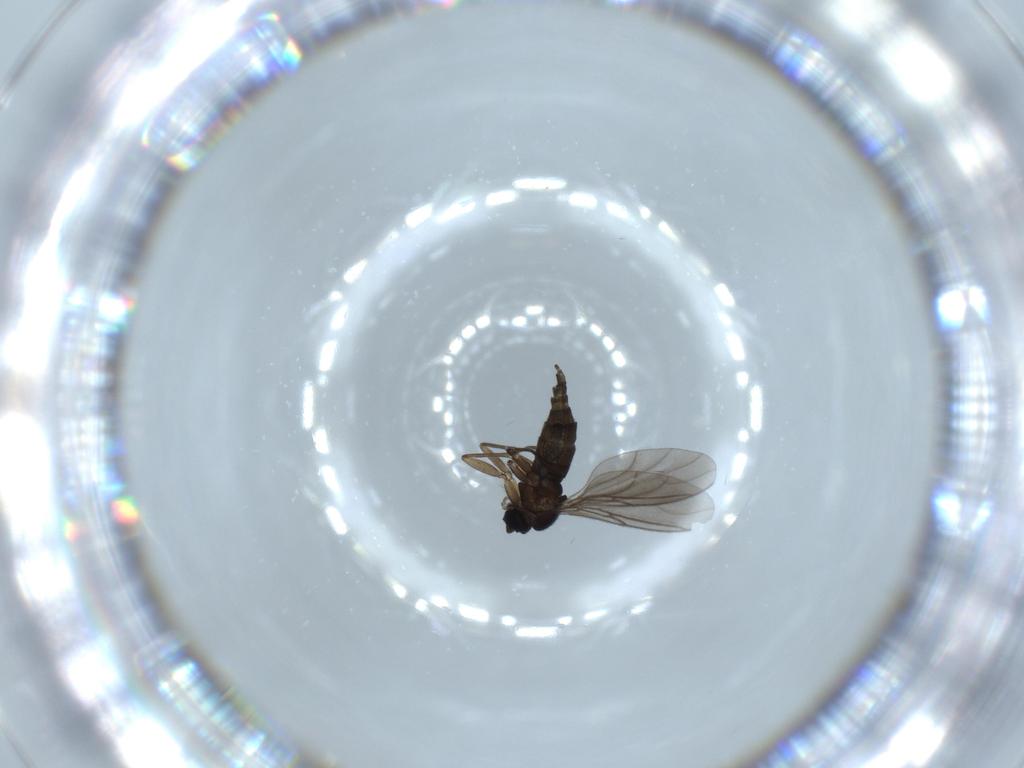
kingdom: Animalia
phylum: Arthropoda
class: Insecta
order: Diptera
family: Sciaridae
